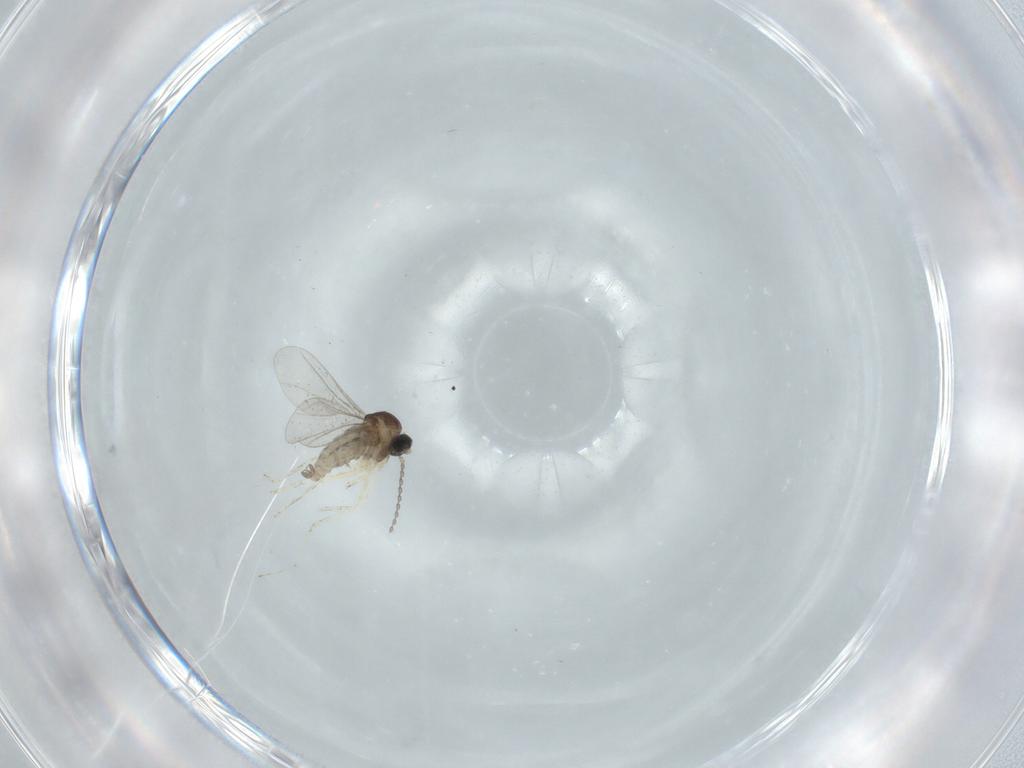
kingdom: Animalia
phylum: Arthropoda
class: Insecta
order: Diptera
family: Cecidomyiidae
